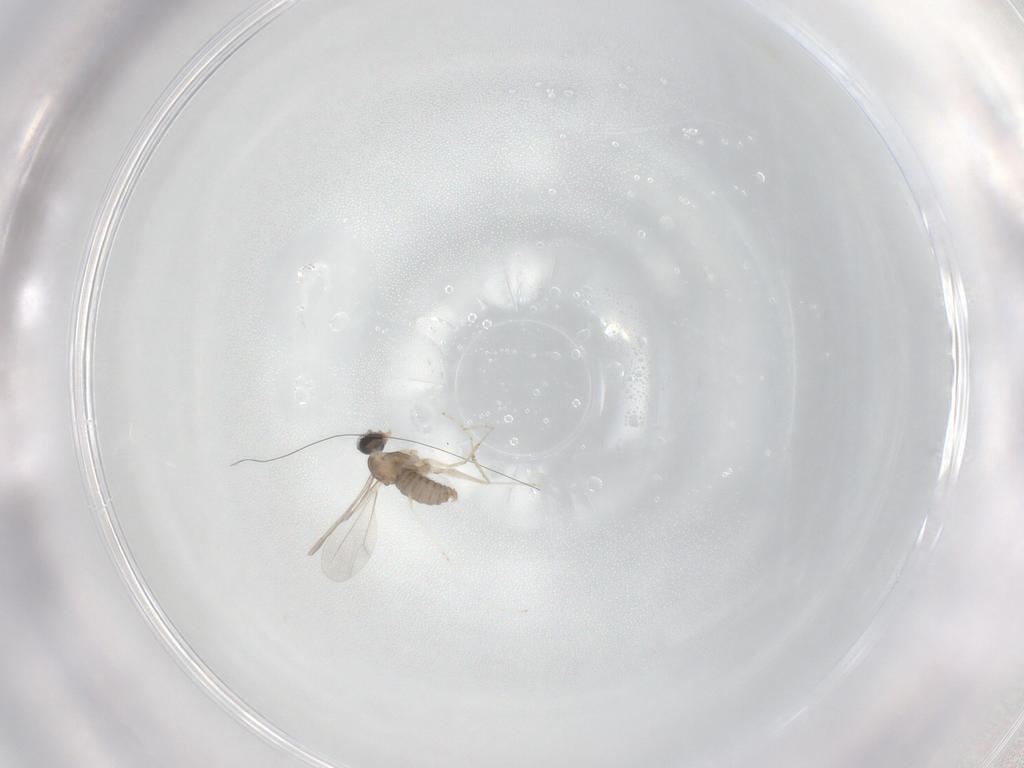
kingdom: Animalia
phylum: Arthropoda
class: Insecta
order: Diptera
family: Cecidomyiidae
